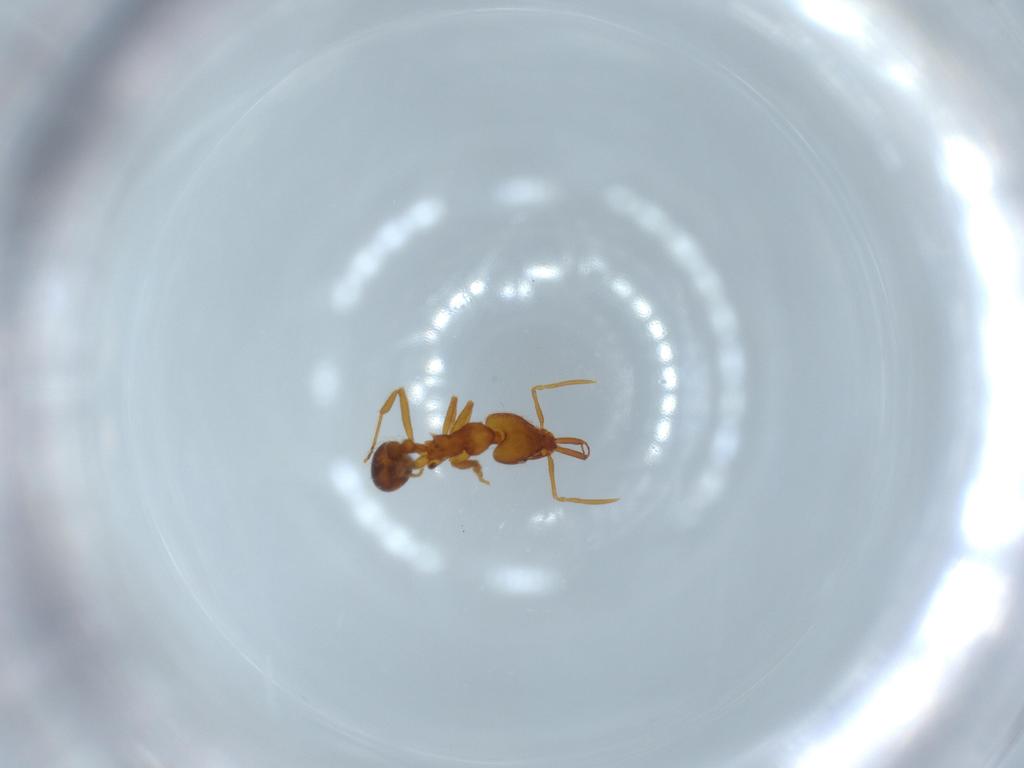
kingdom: Animalia
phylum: Arthropoda
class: Insecta
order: Hymenoptera
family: Formicidae
